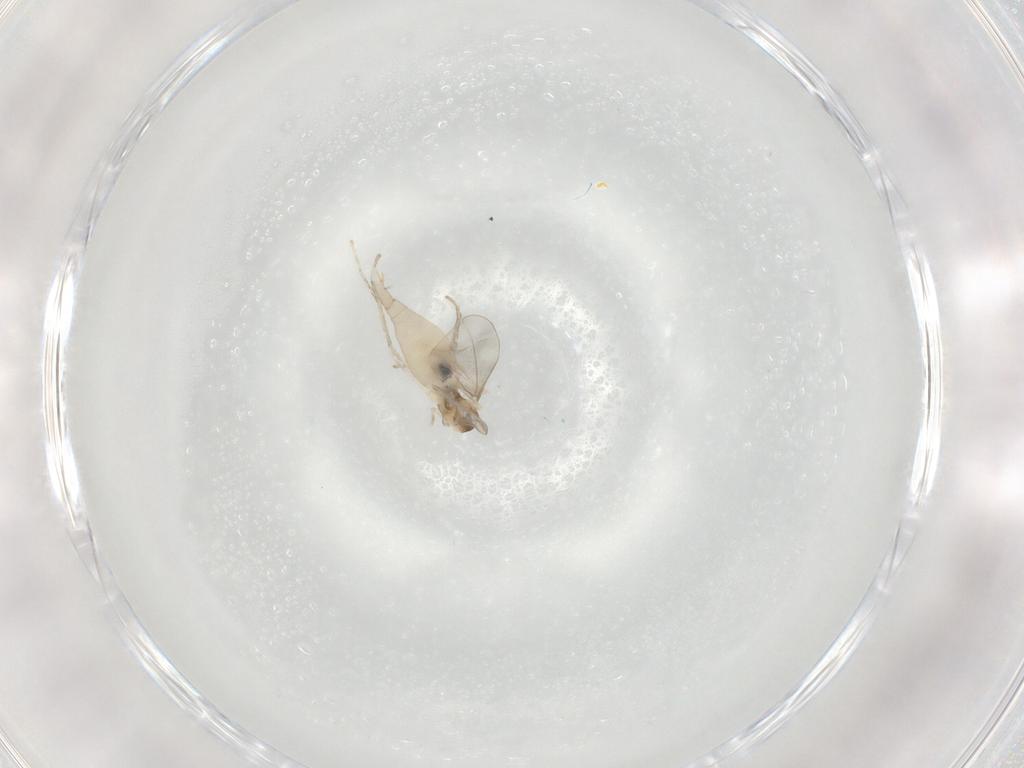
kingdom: Animalia
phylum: Arthropoda
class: Insecta
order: Diptera
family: Cecidomyiidae
